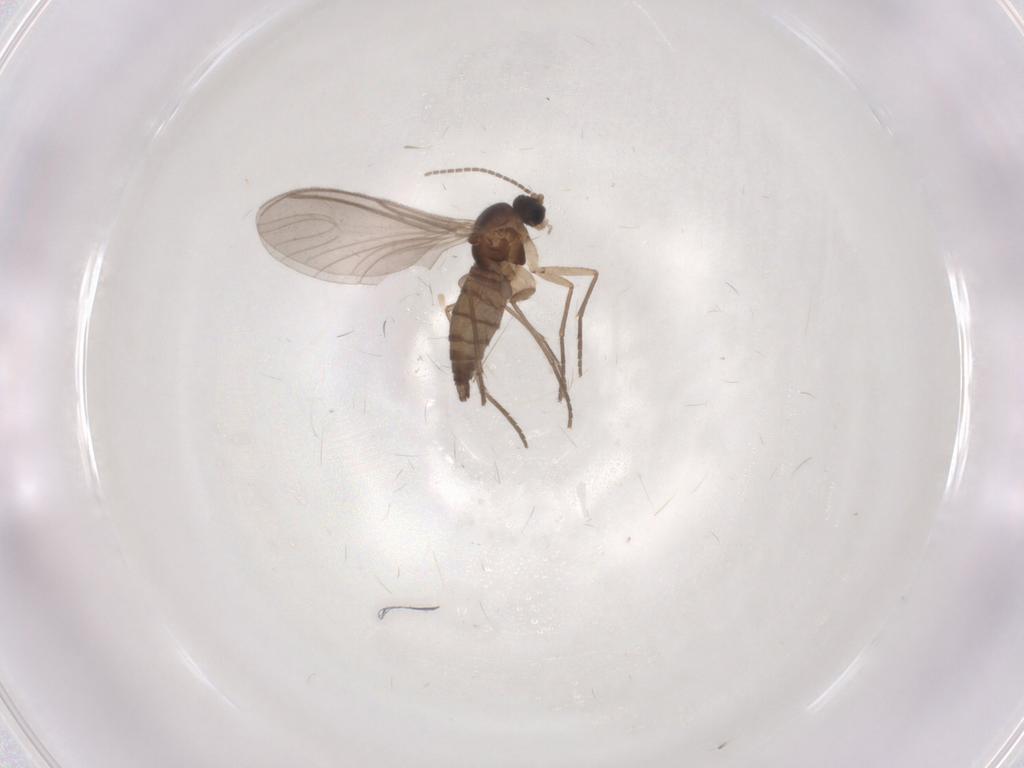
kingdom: Animalia
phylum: Arthropoda
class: Insecta
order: Diptera
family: Sciaridae
